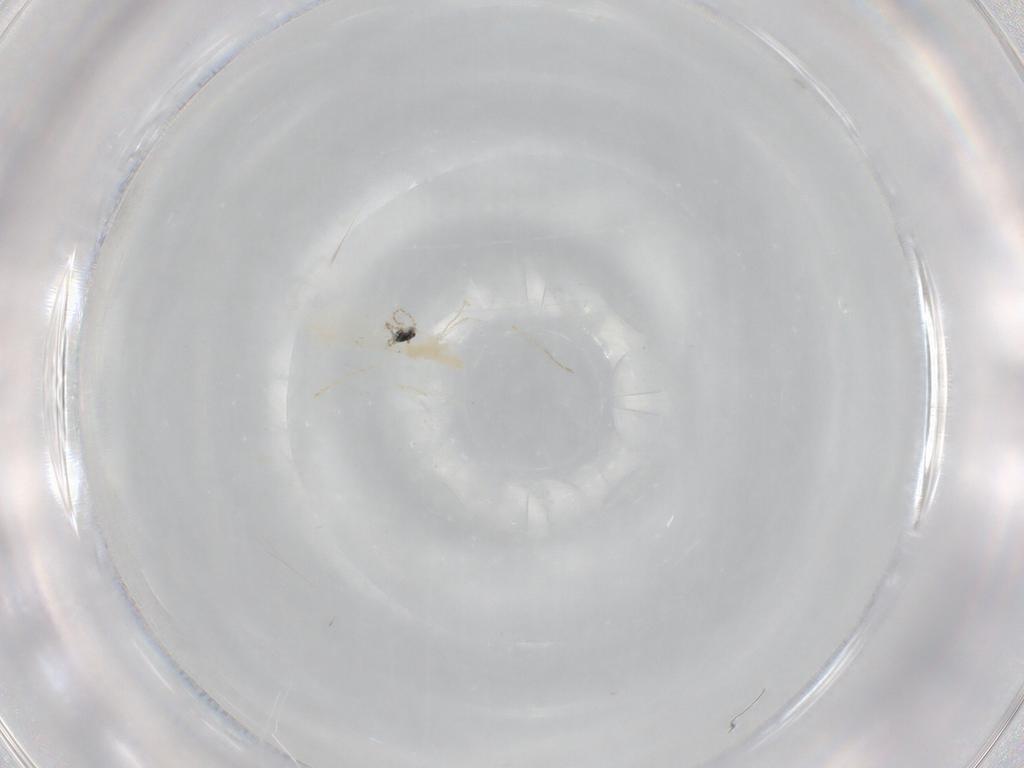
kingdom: Animalia
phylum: Arthropoda
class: Insecta
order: Diptera
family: Cecidomyiidae
